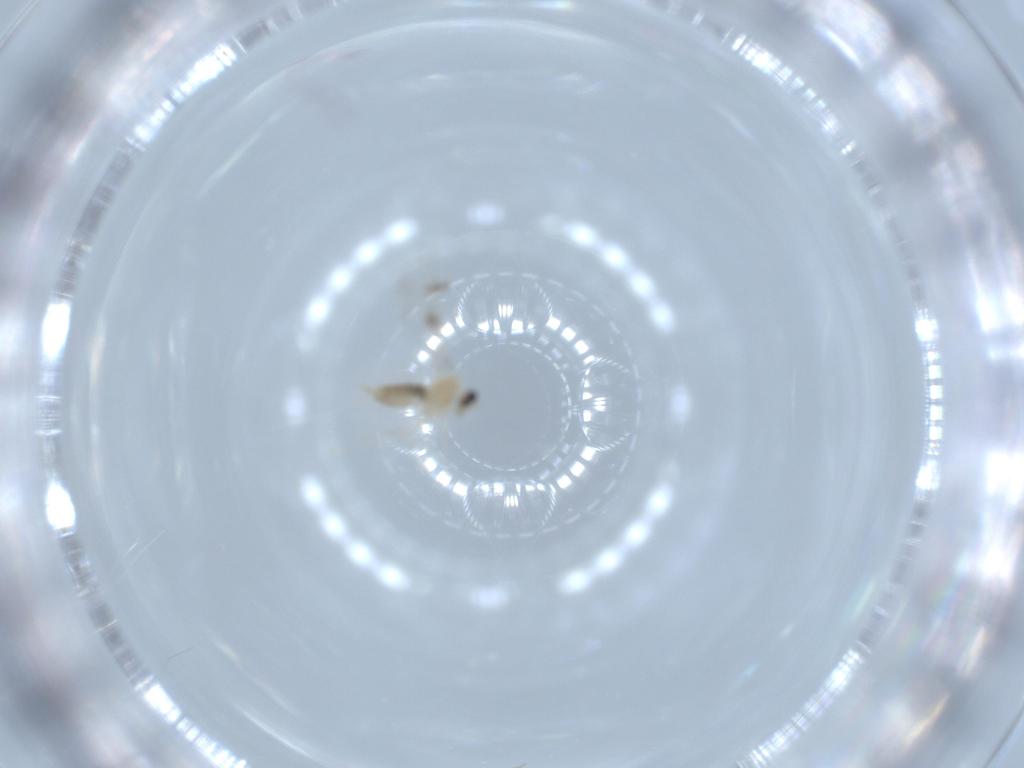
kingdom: Animalia
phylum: Arthropoda
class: Insecta
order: Diptera
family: Cecidomyiidae
